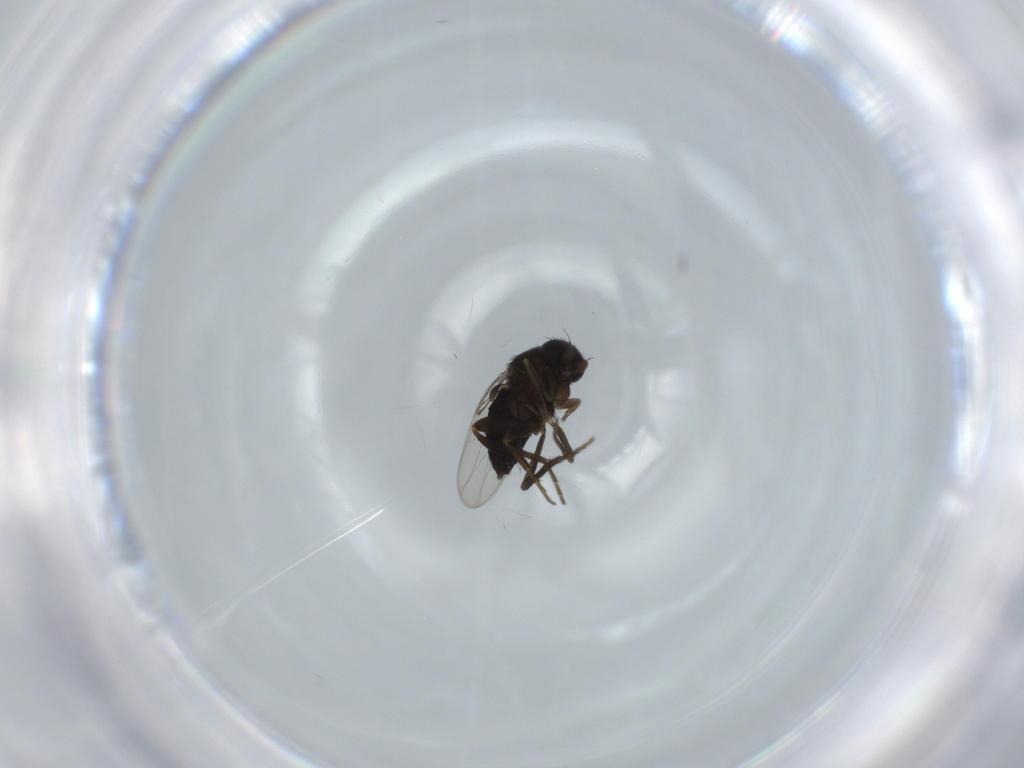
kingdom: Animalia
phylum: Arthropoda
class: Insecta
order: Diptera
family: Phoridae
